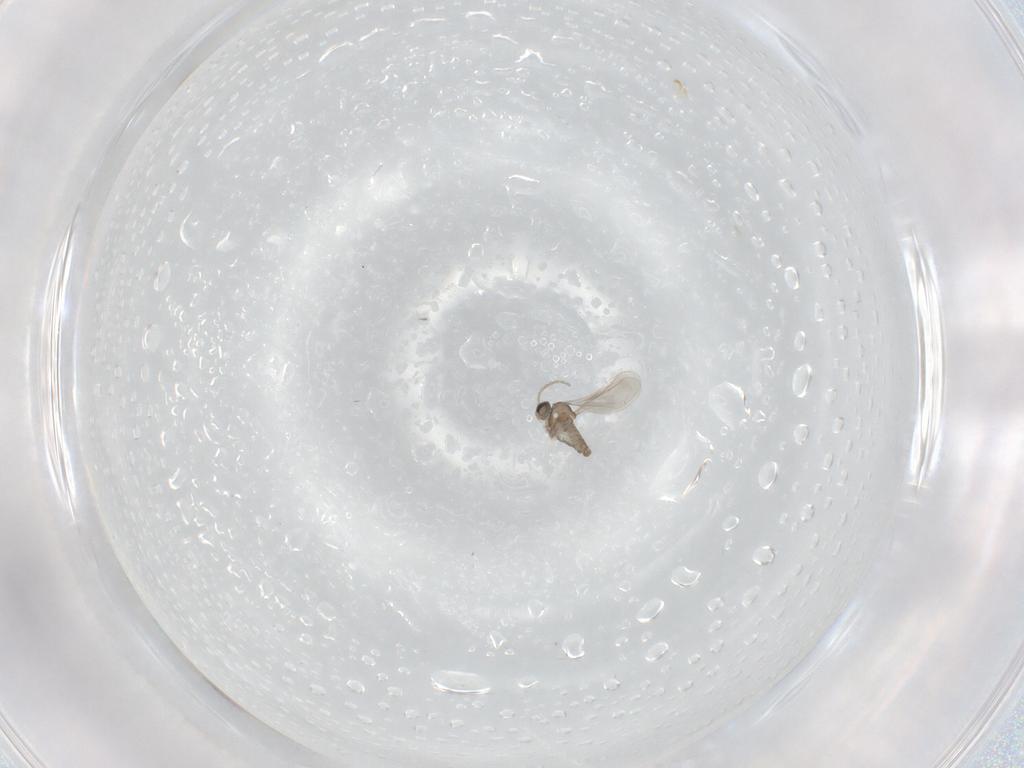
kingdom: Animalia
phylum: Arthropoda
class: Insecta
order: Diptera
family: Cecidomyiidae
